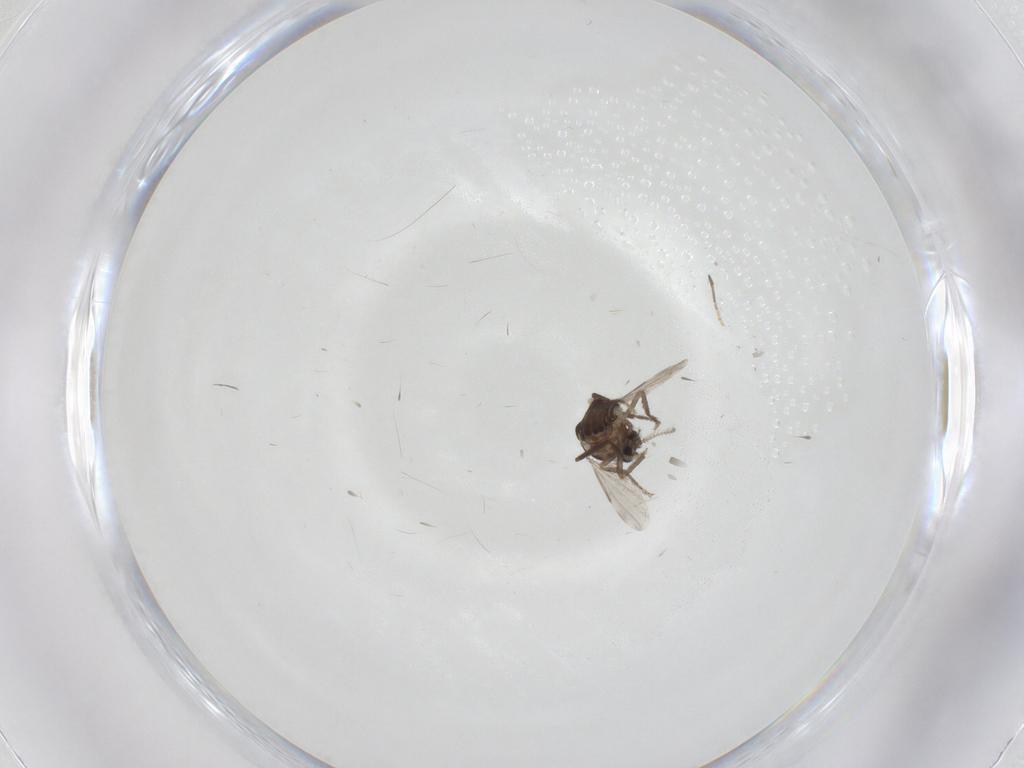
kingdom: Animalia
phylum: Arthropoda
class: Insecta
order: Diptera
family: Ceratopogonidae
